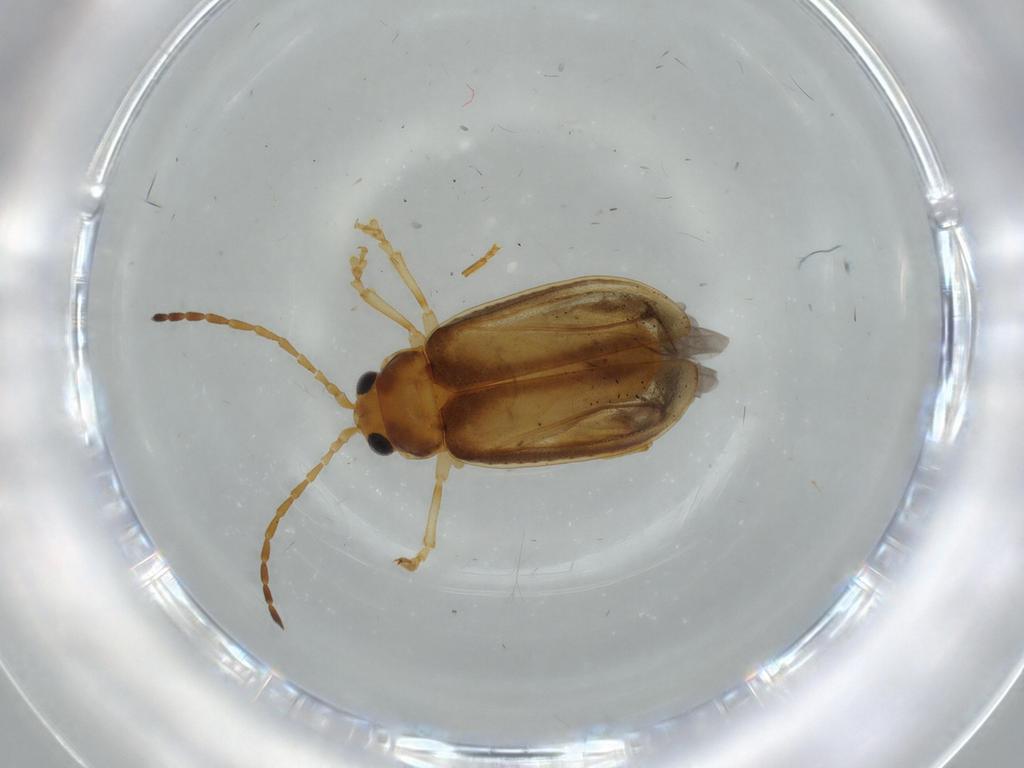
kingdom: Animalia
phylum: Arthropoda
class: Insecta
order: Coleoptera
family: Chrysomelidae
